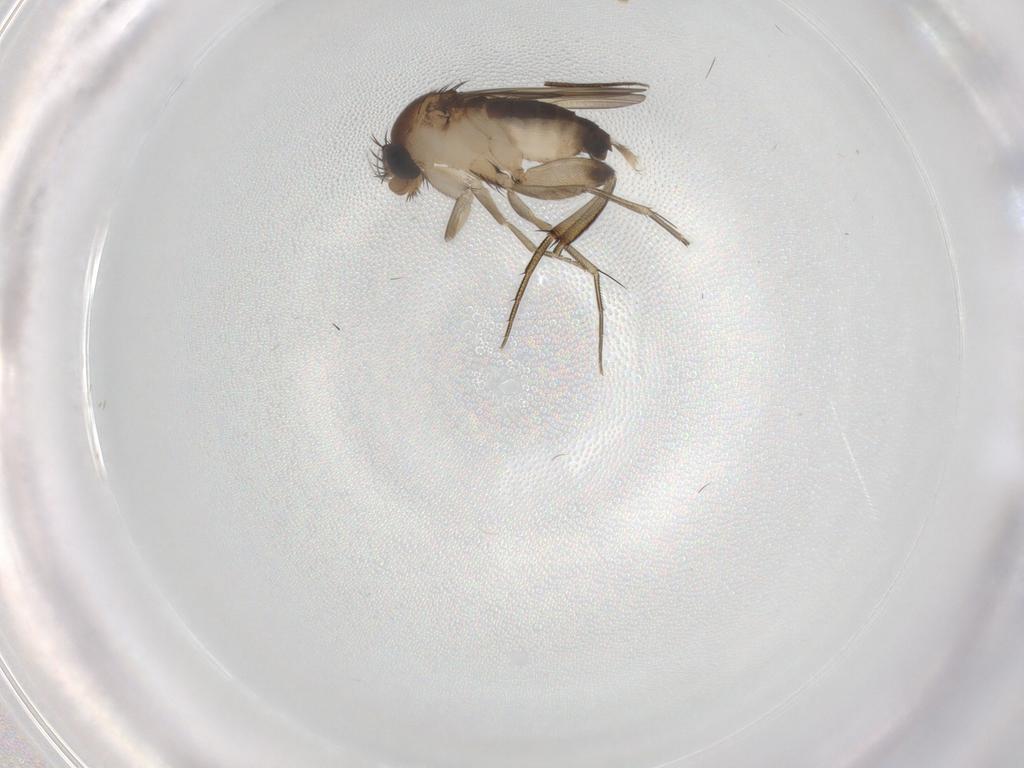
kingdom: Animalia
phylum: Arthropoda
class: Insecta
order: Diptera
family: Phoridae
